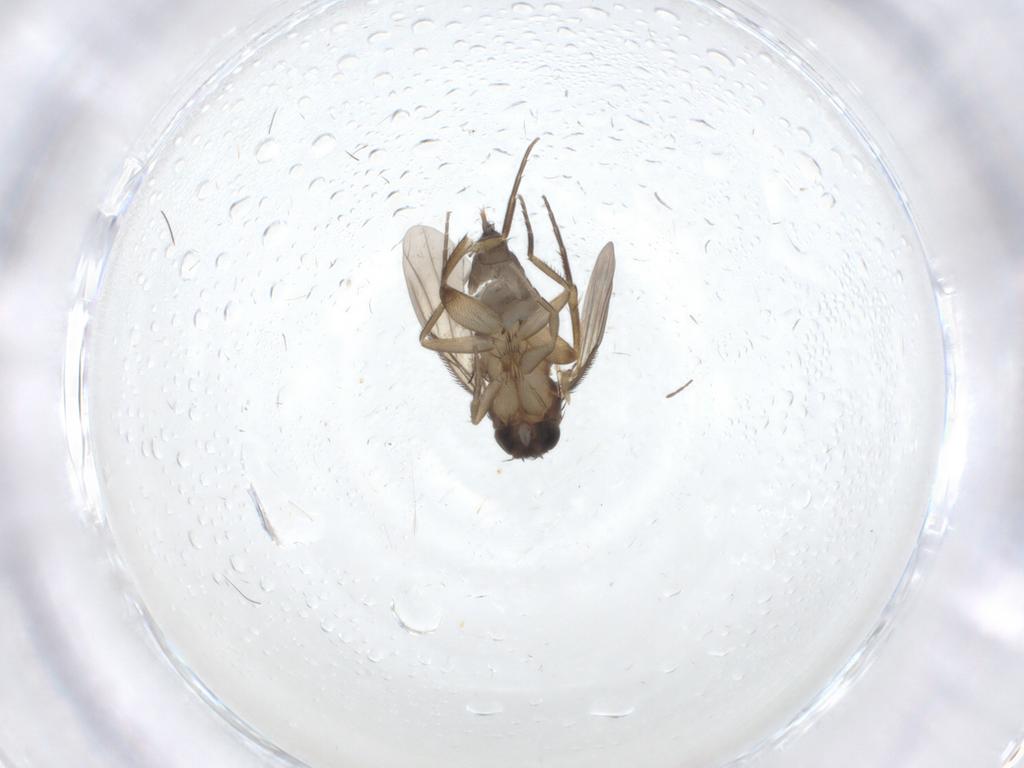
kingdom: Animalia
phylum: Arthropoda
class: Insecta
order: Diptera
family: Phoridae
